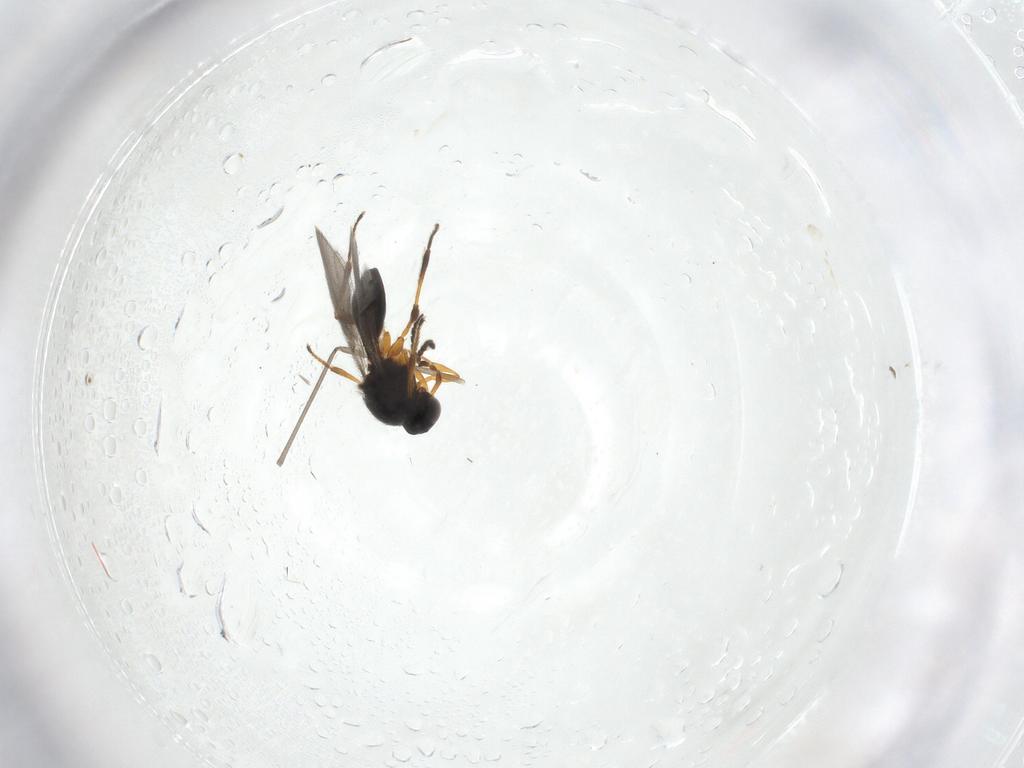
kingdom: Animalia
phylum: Arthropoda
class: Insecta
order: Hymenoptera
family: Platygastridae
